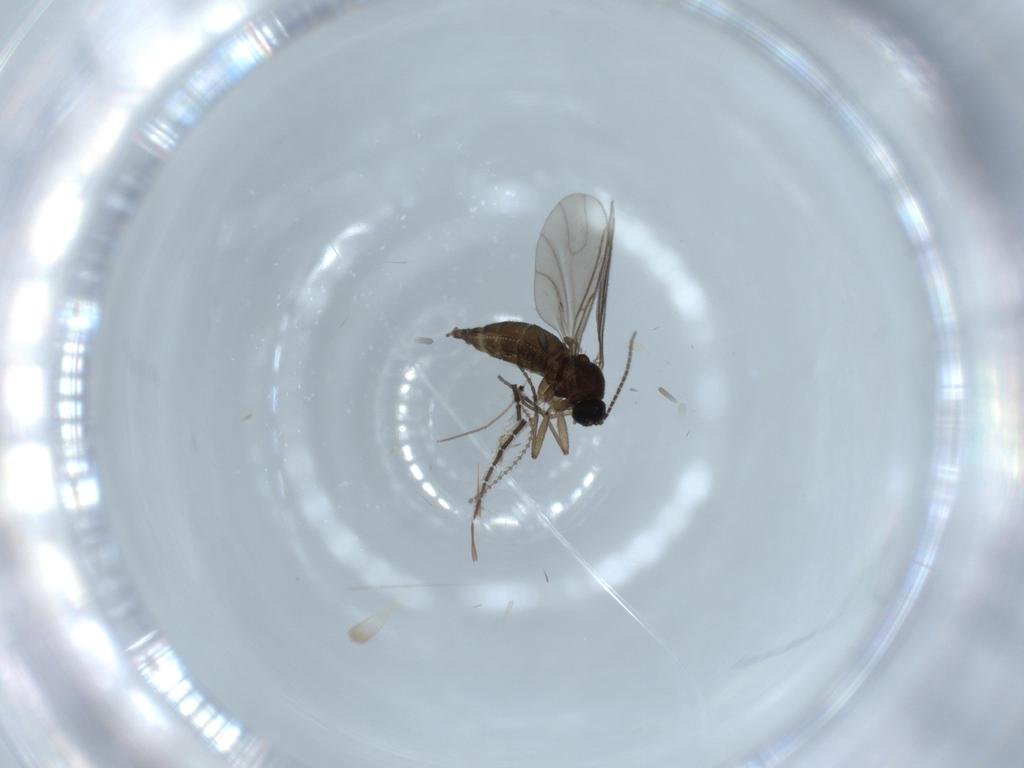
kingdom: Animalia
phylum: Arthropoda
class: Insecta
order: Diptera
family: Sciaridae
